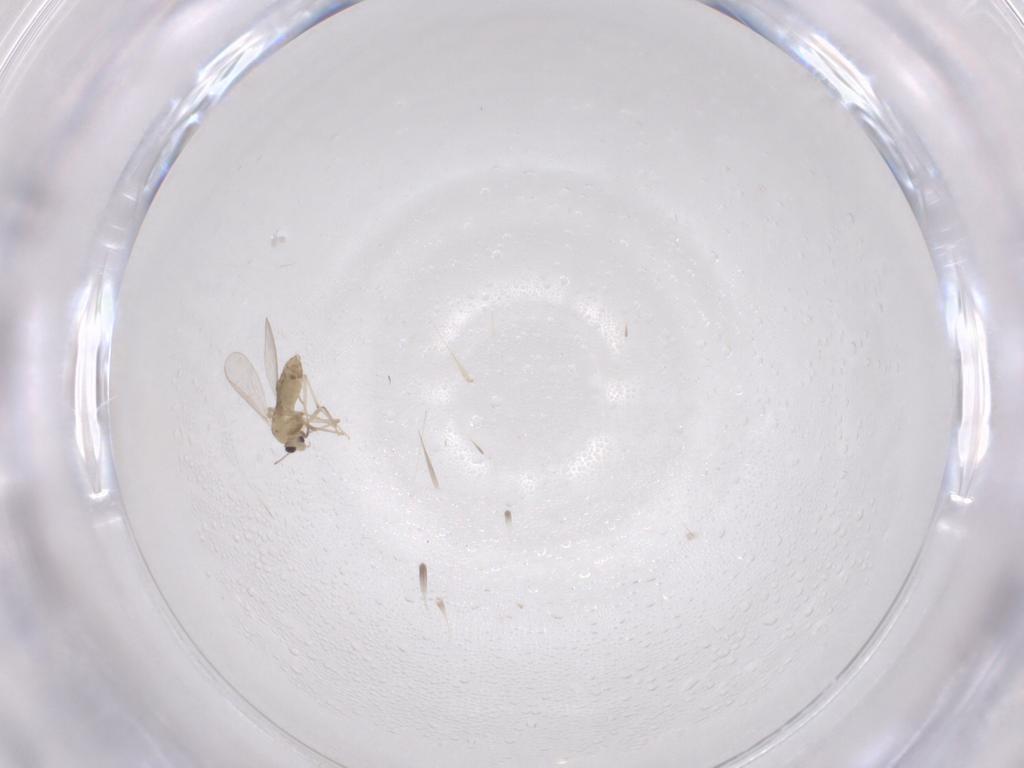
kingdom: Animalia
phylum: Arthropoda
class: Insecta
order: Diptera
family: Chironomidae
